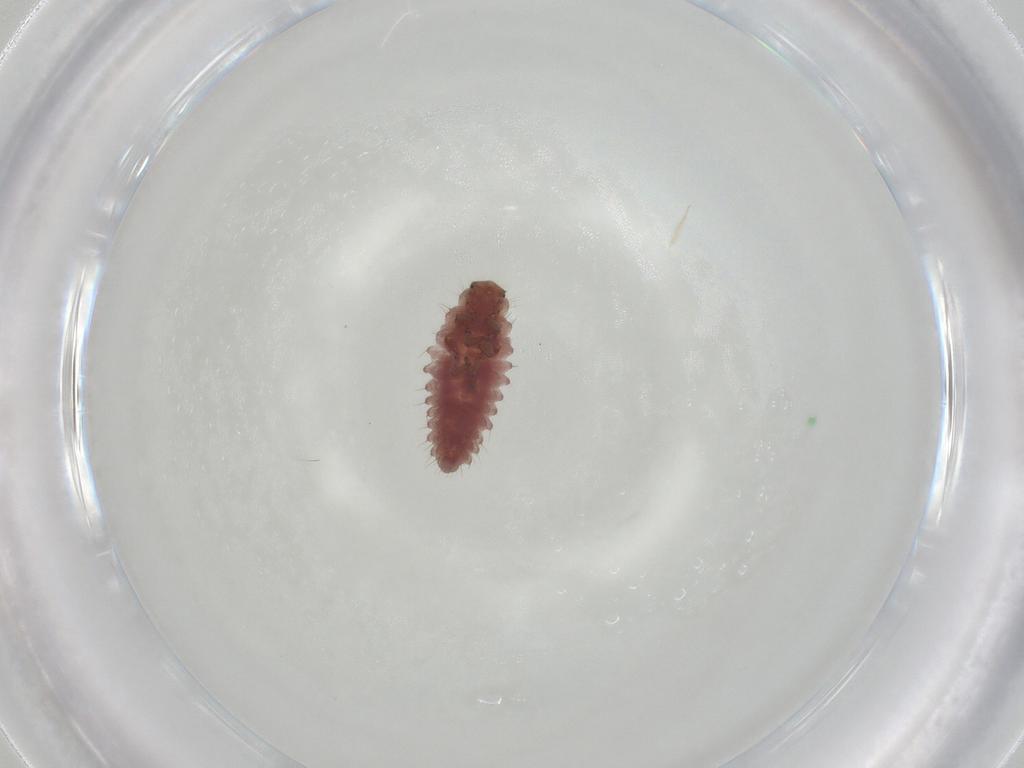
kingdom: Animalia
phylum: Arthropoda
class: Insecta
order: Coleoptera
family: Coccinellidae
